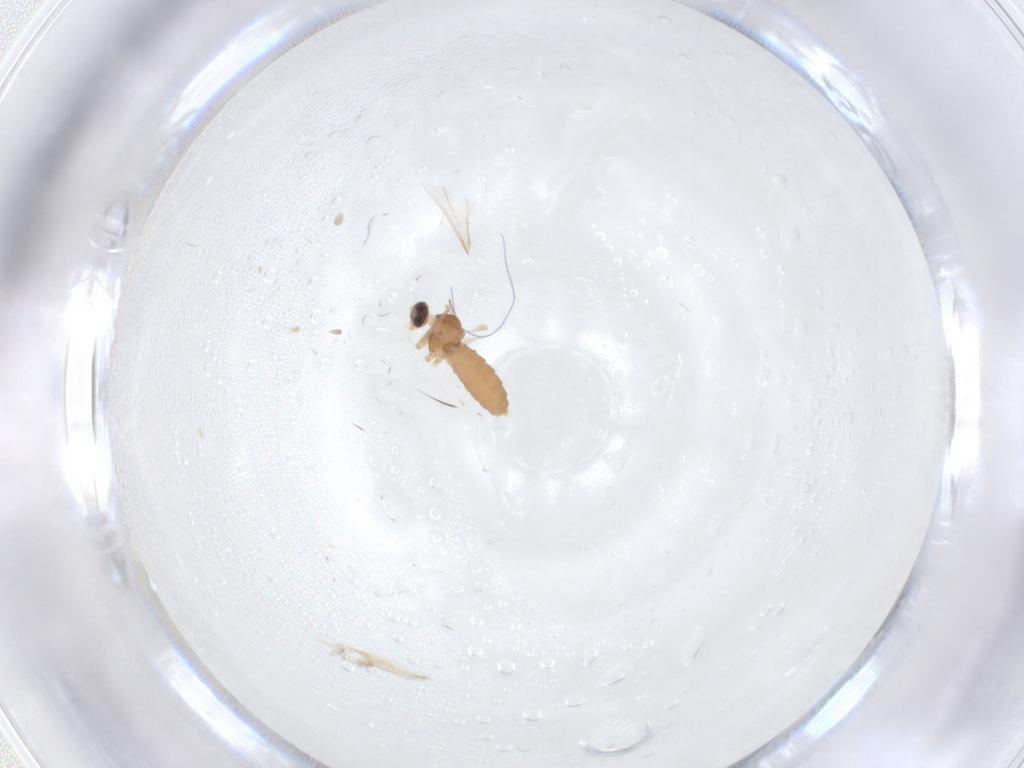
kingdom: Animalia
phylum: Arthropoda
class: Insecta
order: Diptera
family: Cecidomyiidae
